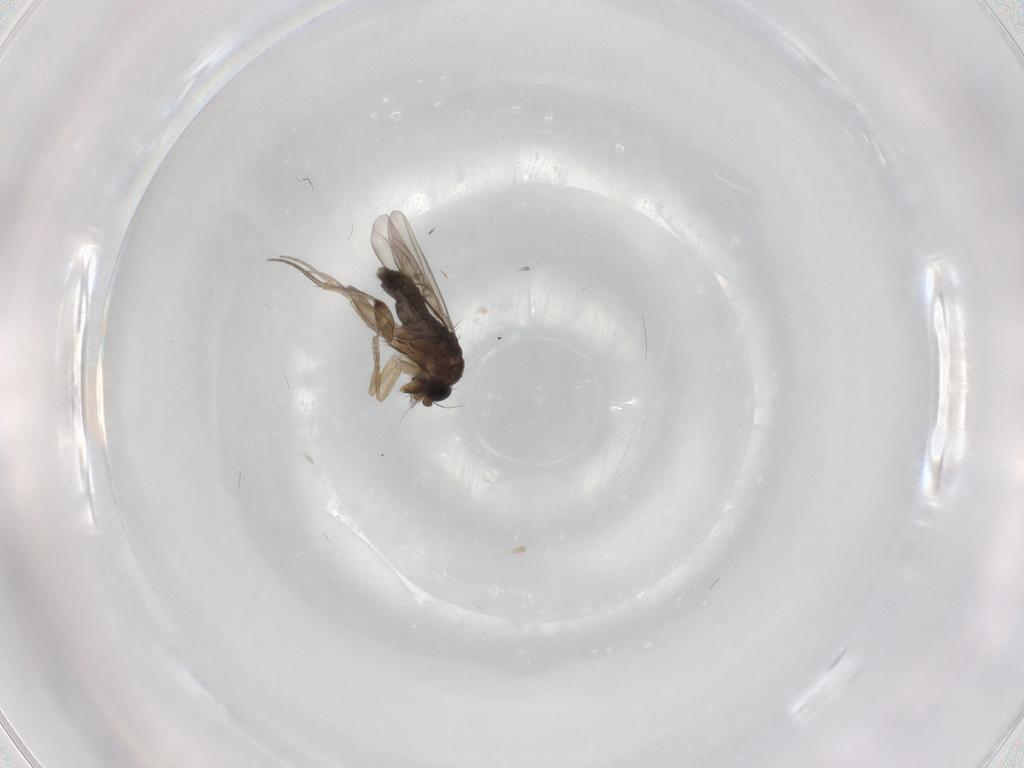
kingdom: Animalia
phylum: Arthropoda
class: Insecta
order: Diptera
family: Phoridae
